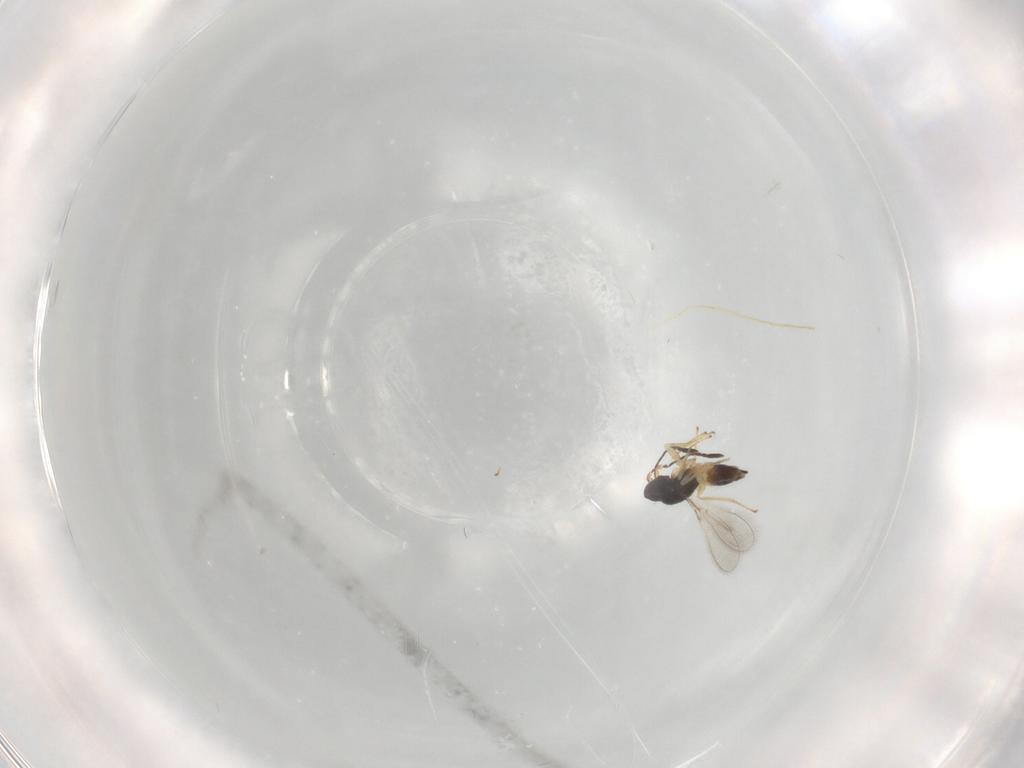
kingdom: Animalia
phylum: Arthropoda
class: Insecta
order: Hymenoptera
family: Mymaridae
